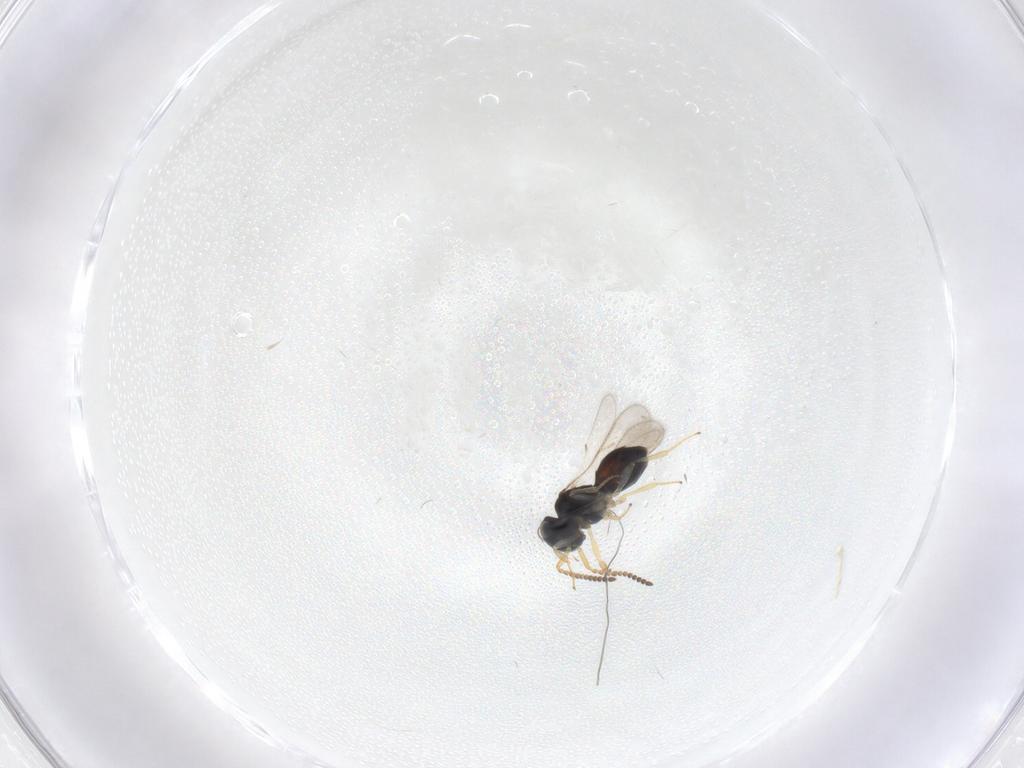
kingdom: Animalia
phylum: Arthropoda
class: Insecta
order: Hymenoptera
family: Scelionidae
